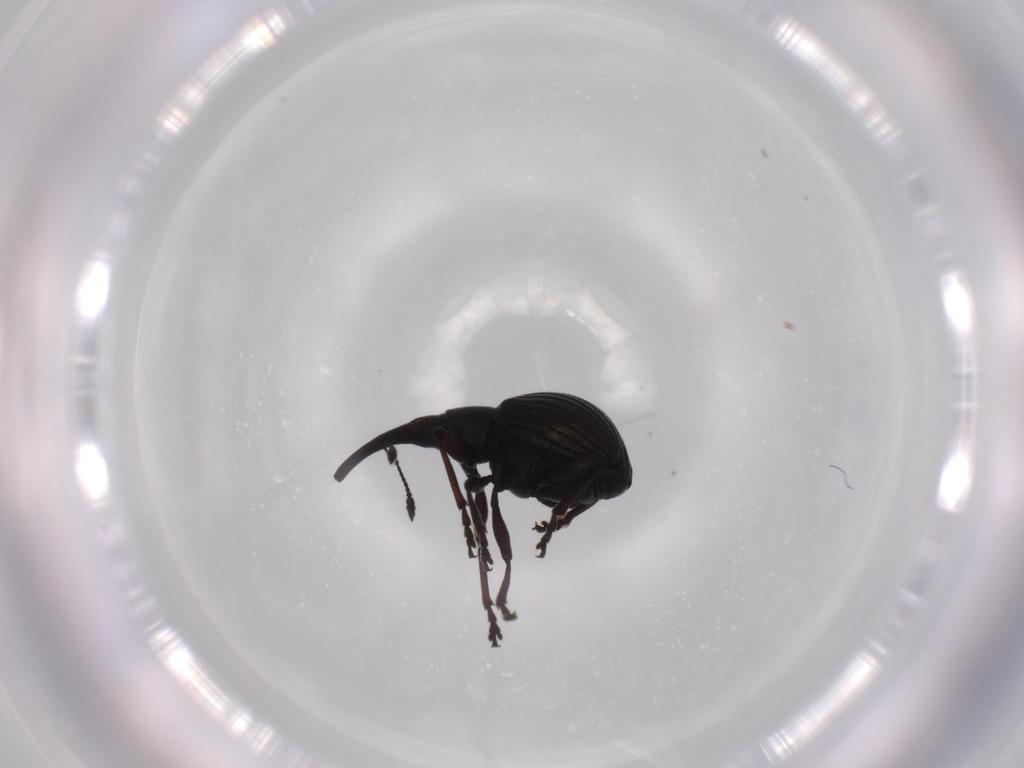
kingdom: Animalia
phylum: Arthropoda
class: Insecta
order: Coleoptera
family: Brentidae
